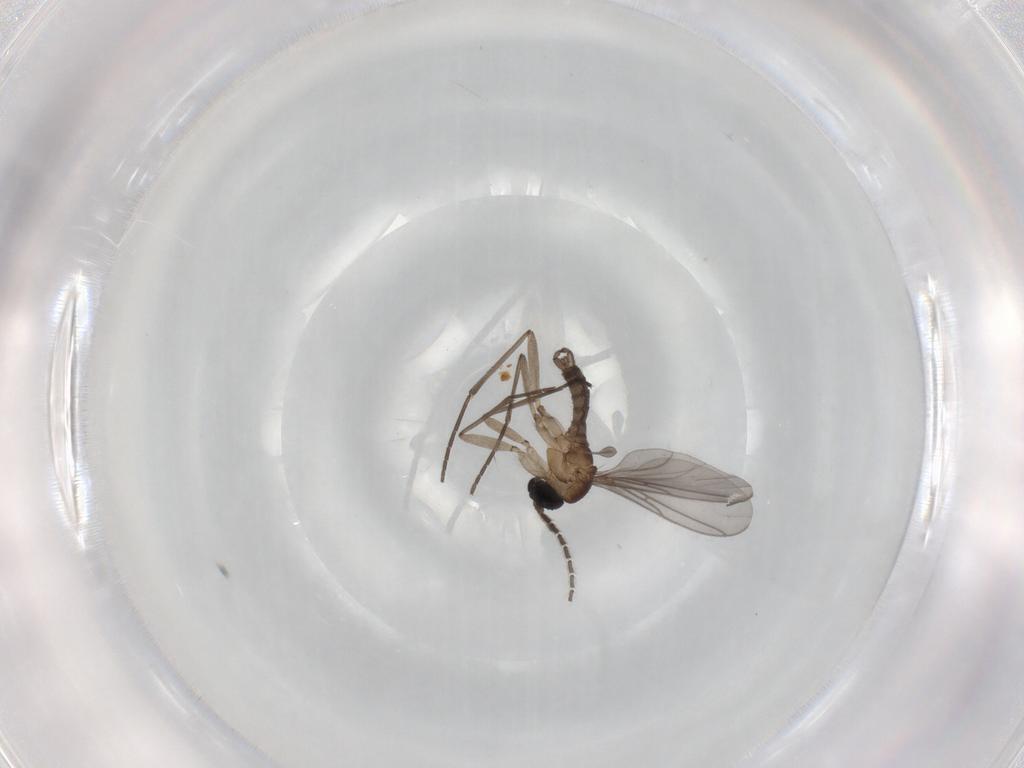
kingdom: Animalia
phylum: Arthropoda
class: Insecta
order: Diptera
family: Sciaridae
